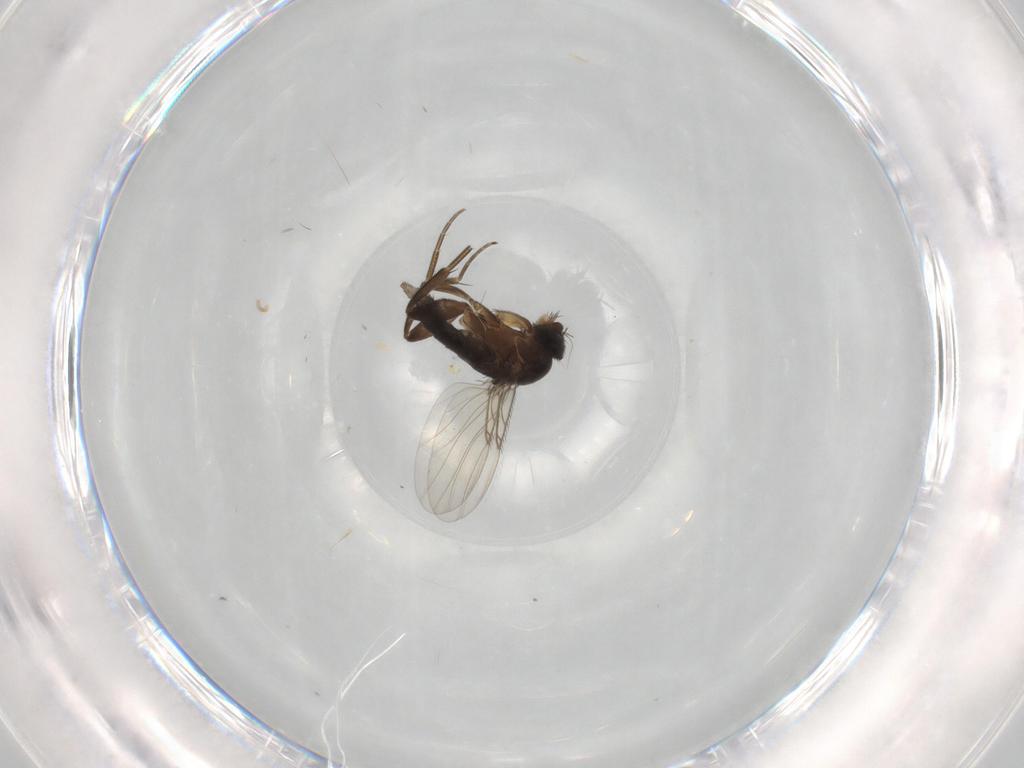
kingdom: Animalia
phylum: Arthropoda
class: Insecta
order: Diptera
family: Phoridae
